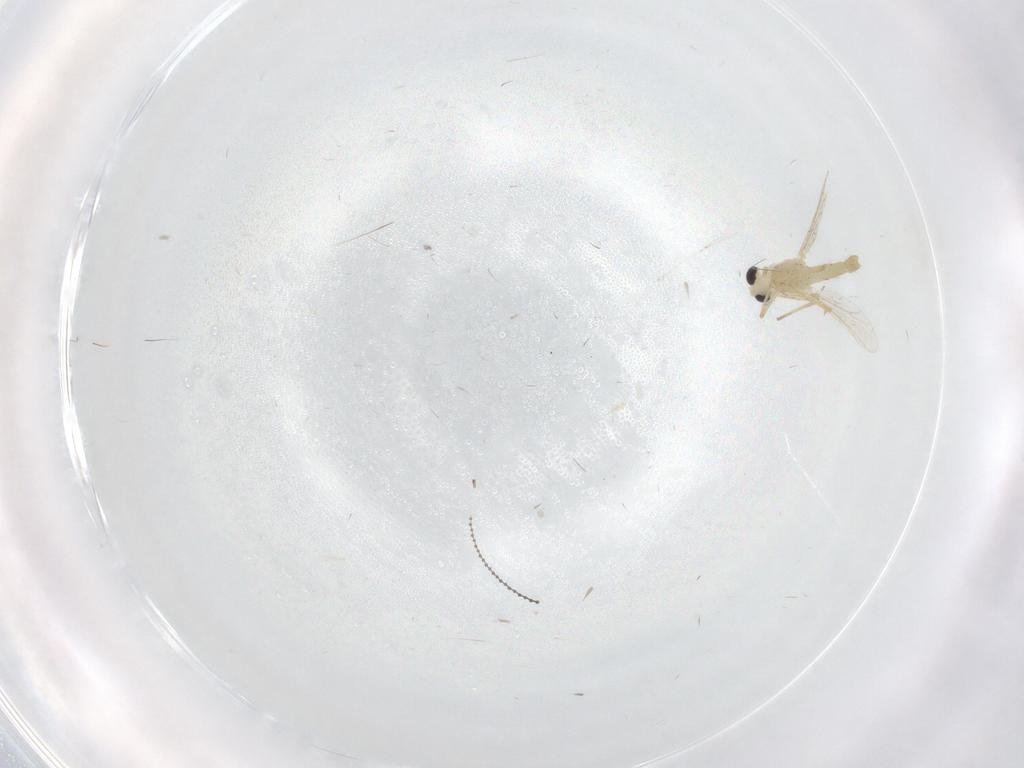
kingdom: Animalia
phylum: Arthropoda
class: Insecta
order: Diptera
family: Chironomidae
